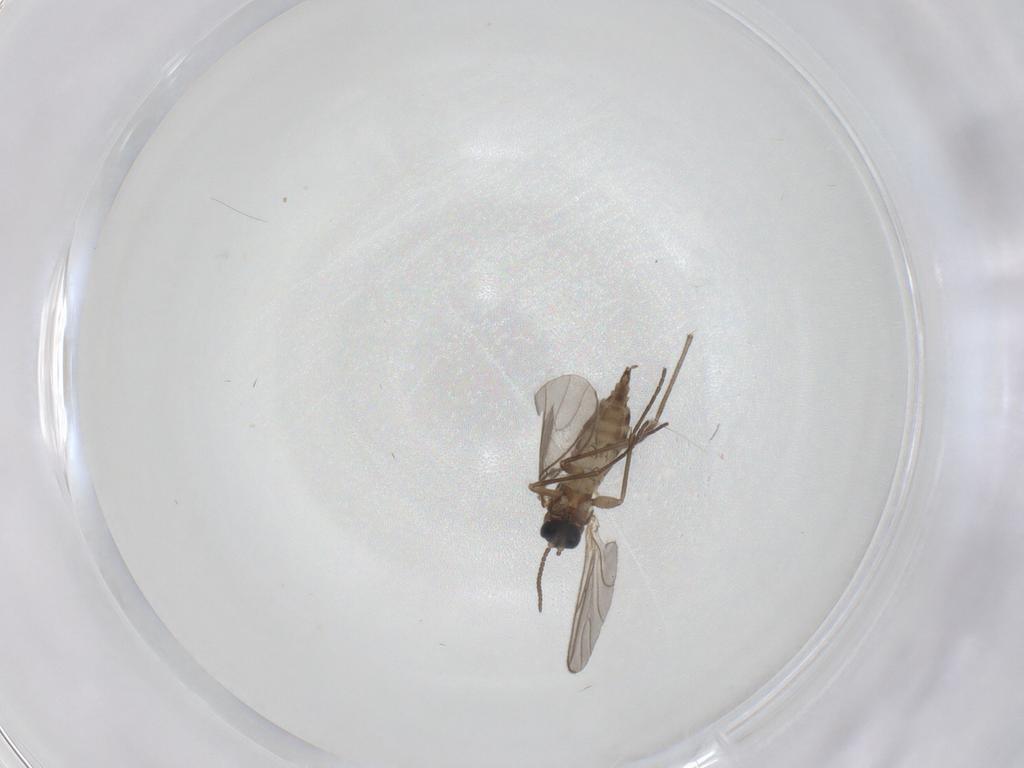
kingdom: Animalia
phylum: Arthropoda
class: Insecta
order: Diptera
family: Sciaridae
